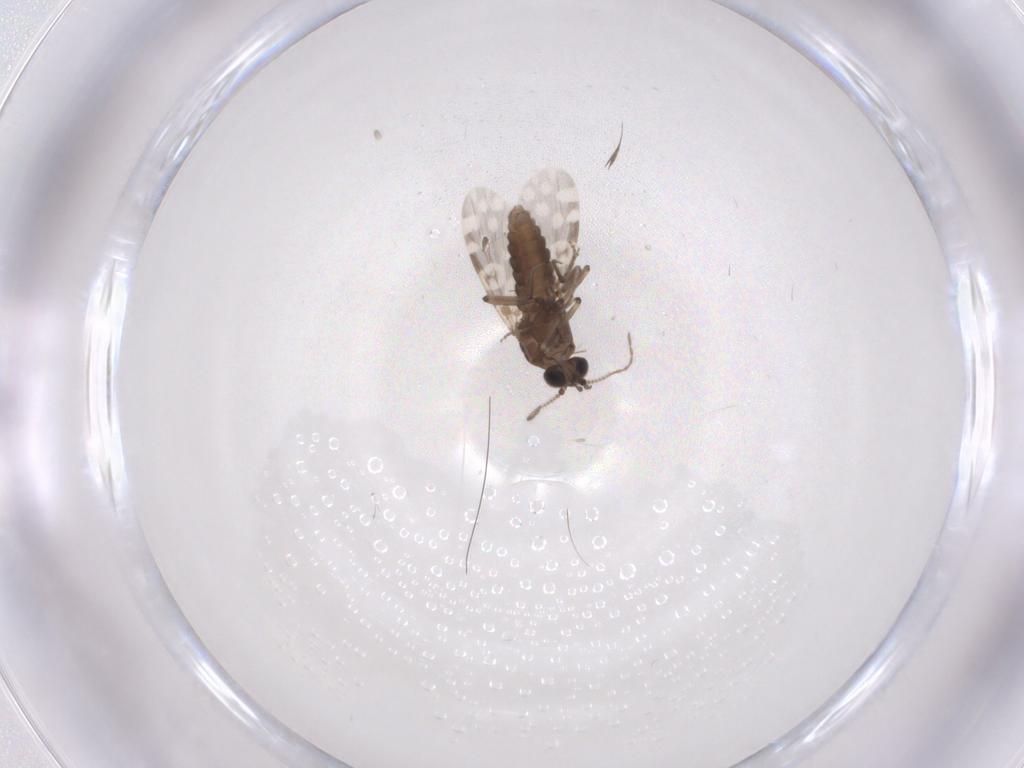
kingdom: Animalia
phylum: Arthropoda
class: Insecta
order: Diptera
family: Chironomidae
